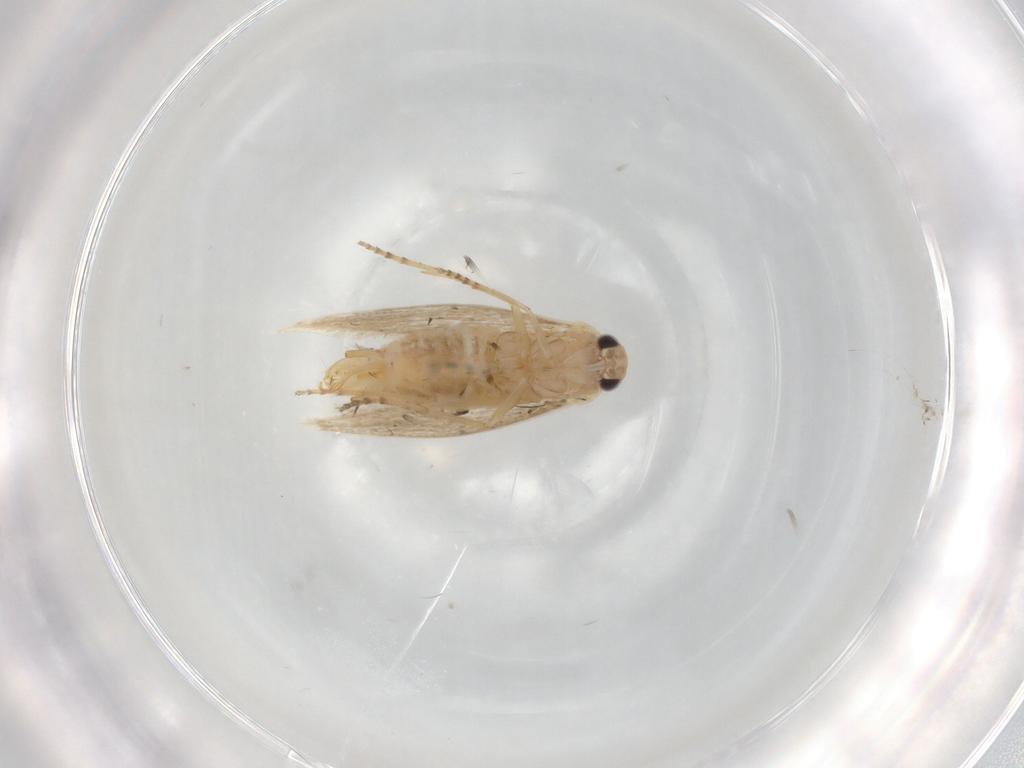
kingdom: Animalia
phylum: Arthropoda
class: Insecta
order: Lepidoptera
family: Bucculatricidae
